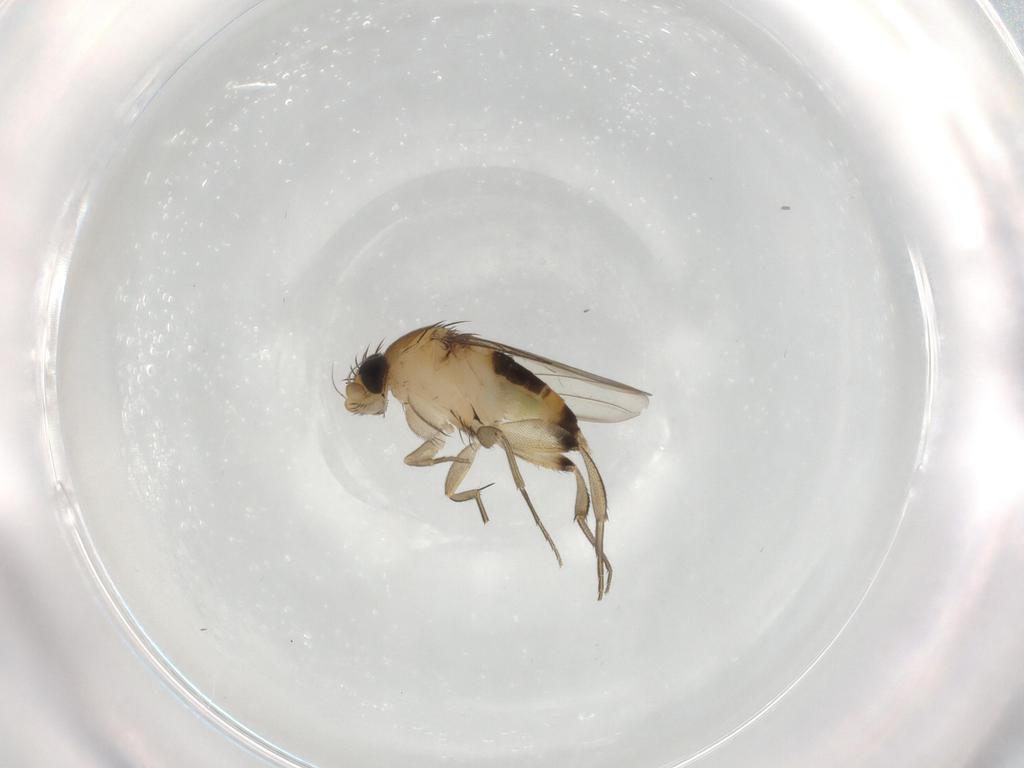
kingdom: Animalia
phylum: Arthropoda
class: Insecta
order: Diptera
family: Phoridae
